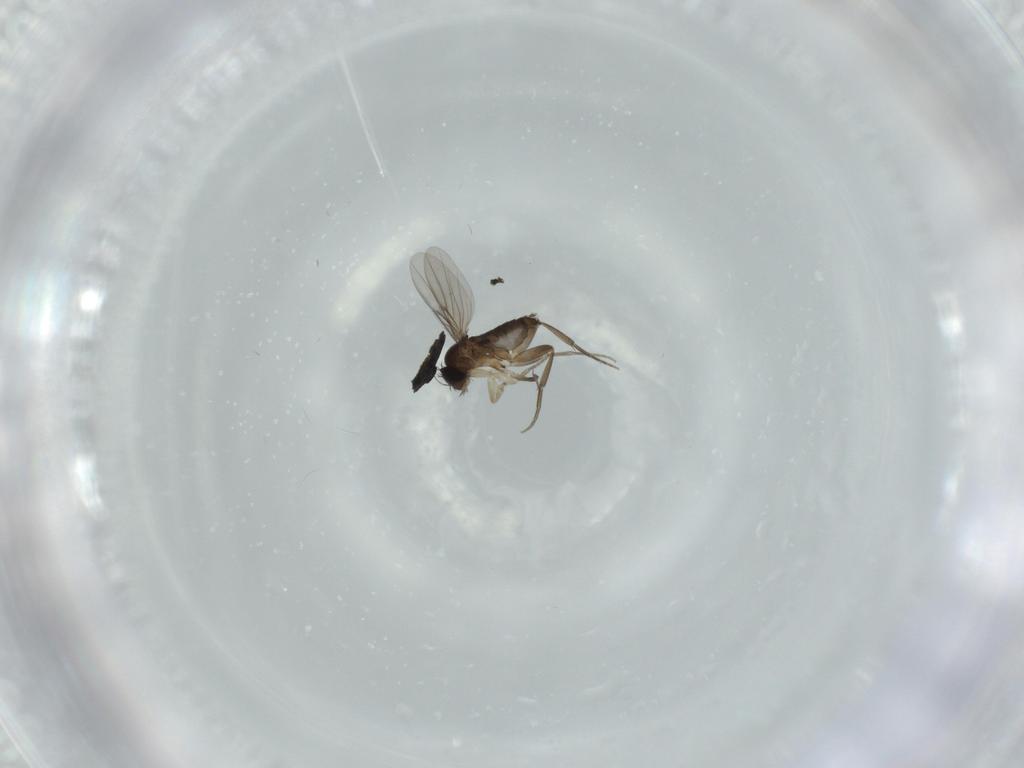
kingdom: Animalia
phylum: Arthropoda
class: Insecta
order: Diptera
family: Phoridae
